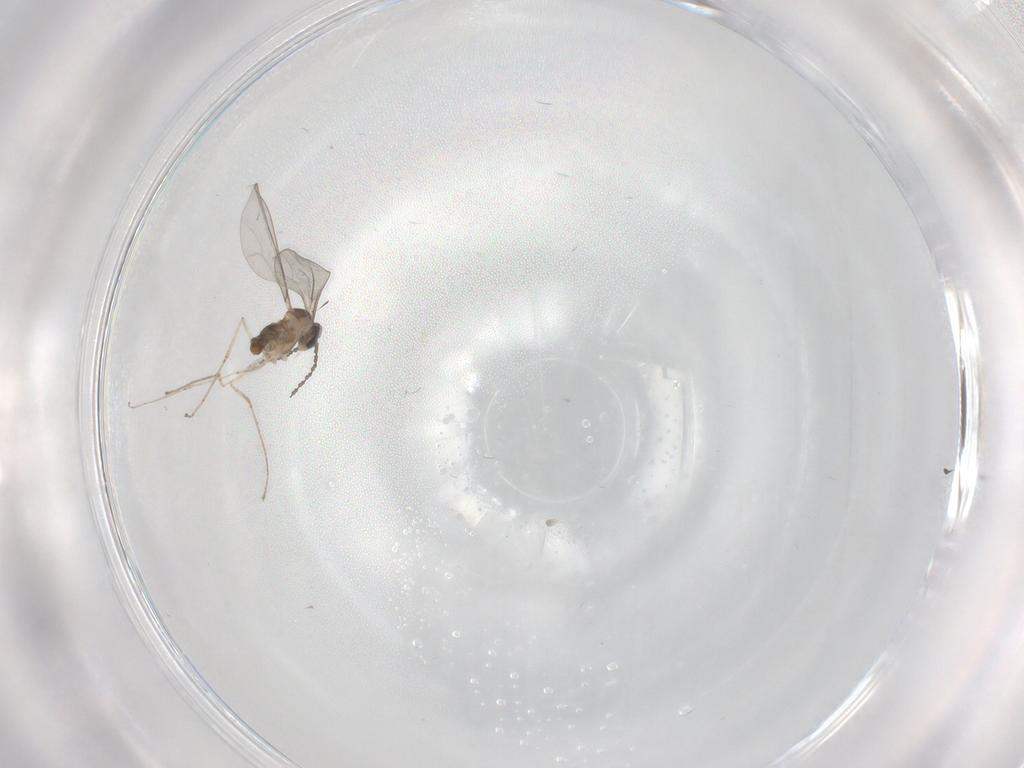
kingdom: Animalia
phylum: Arthropoda
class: Insecta
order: Diptera
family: Cecidomyiidae
